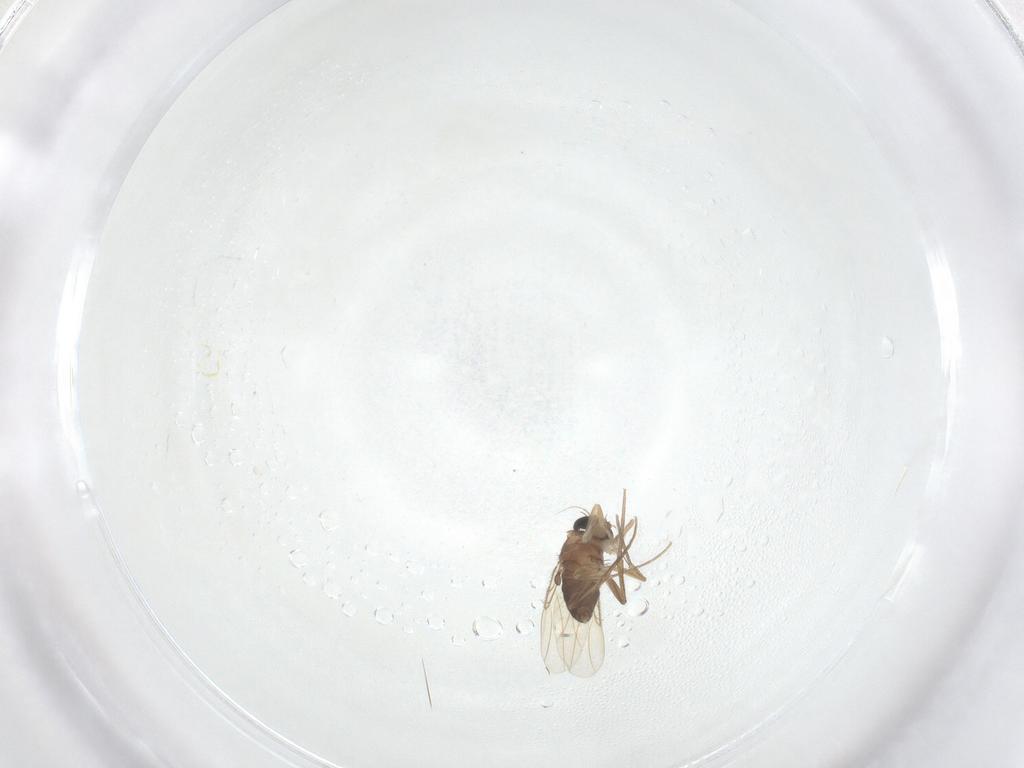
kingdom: Animalia
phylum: Arthropoda
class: Insecta
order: Diptera
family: Phoridae
